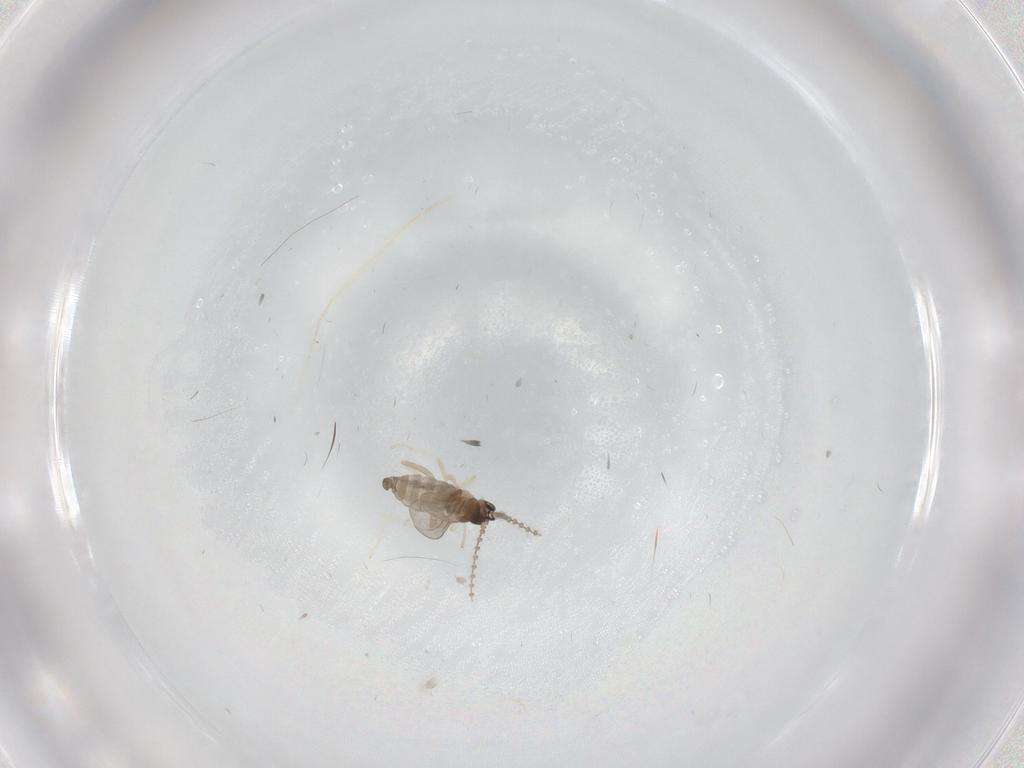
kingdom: Animalia
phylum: Arthropoda
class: Insecta
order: Diptera
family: Cecidomyiidae
